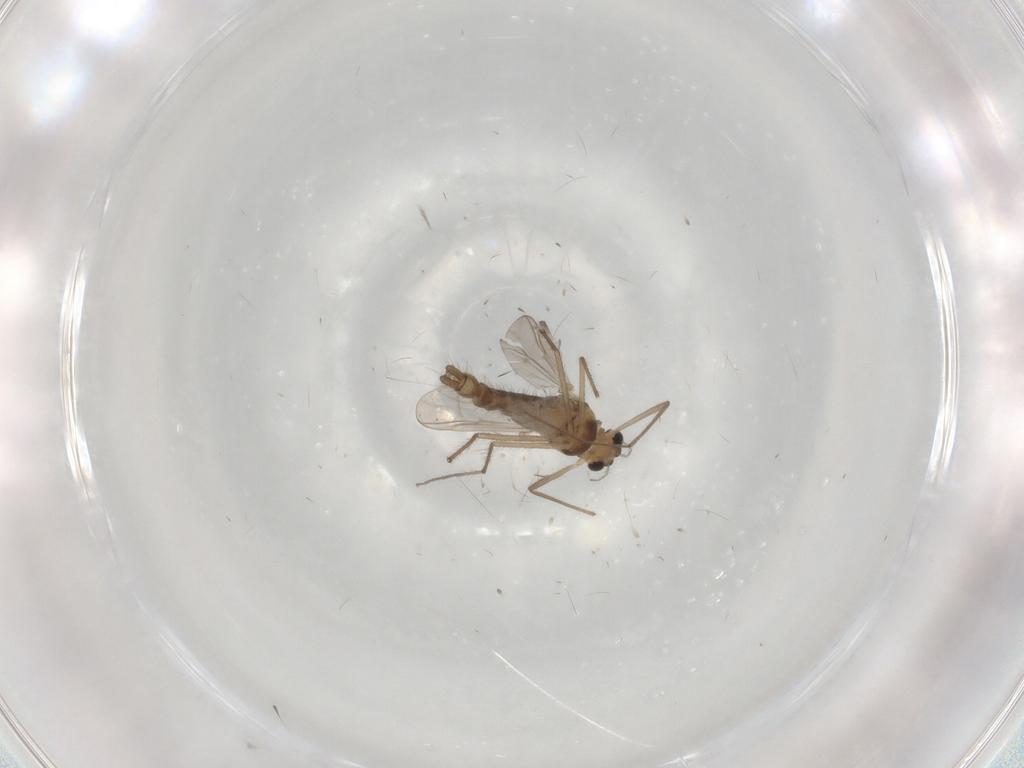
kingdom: Animalia
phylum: Arthropoda
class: Insecta
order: Diptera
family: Chironomidae
